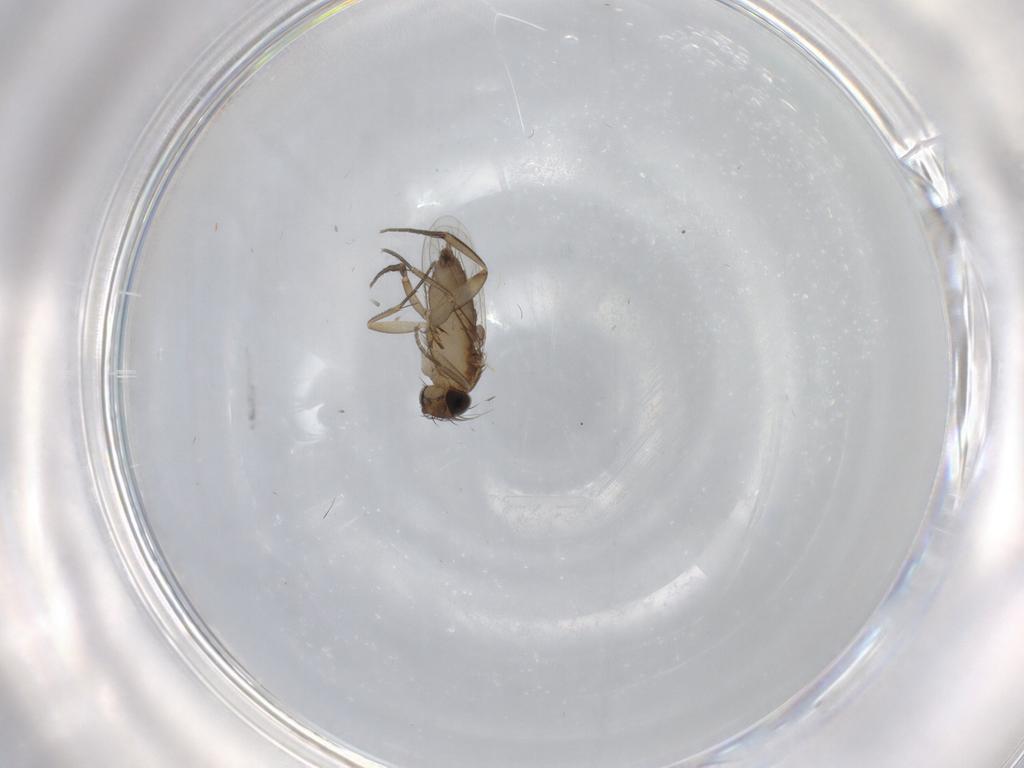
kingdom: Animalia
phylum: Arthropoda
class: Insecta
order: Diptera
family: Phoridae
